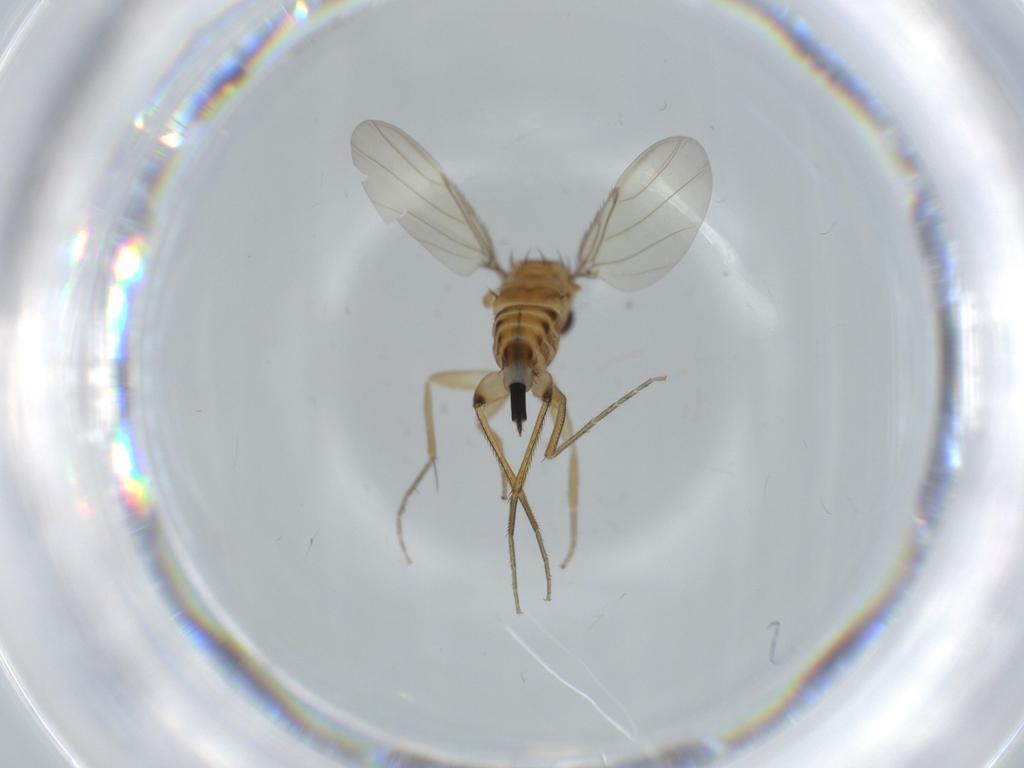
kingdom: Animalia
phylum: Arthropoda
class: Insecta
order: Diptera
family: Phoridae
